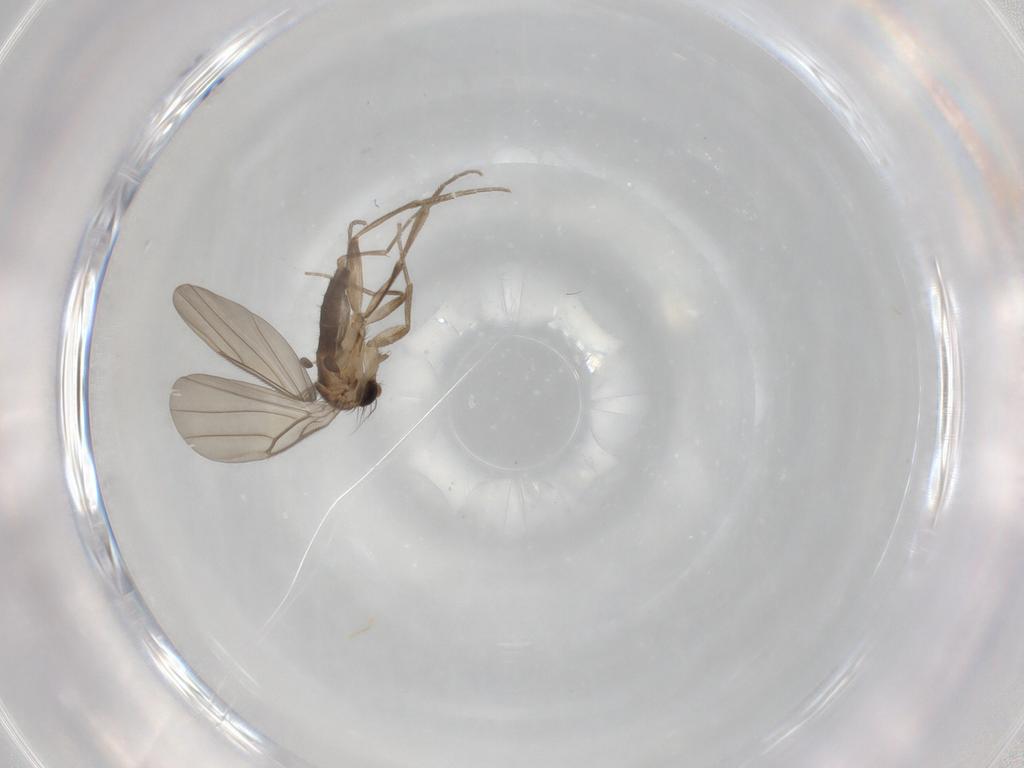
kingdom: Animalia
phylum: Arthropoda
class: Insecta
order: Diptera
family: Phoridae
